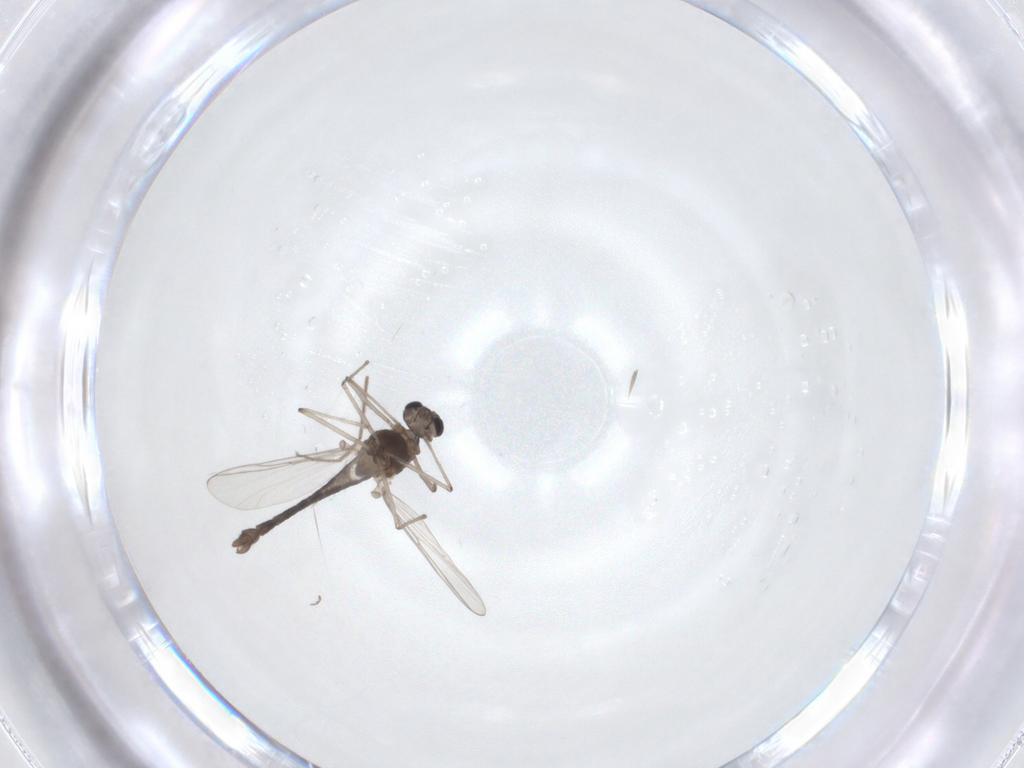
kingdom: Animalia
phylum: Arthropoda
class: Insecta
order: Diptera
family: Chironomidae
